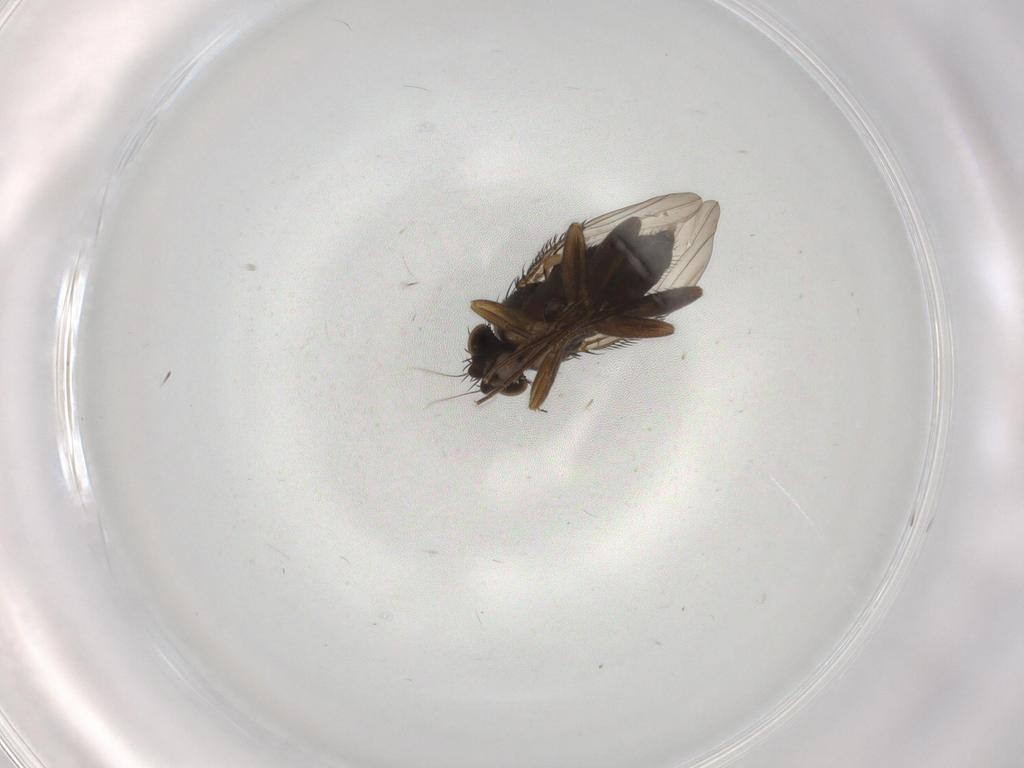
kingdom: Animalia
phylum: Arthropoda
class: Insecta
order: Diptera
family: Phoridae
